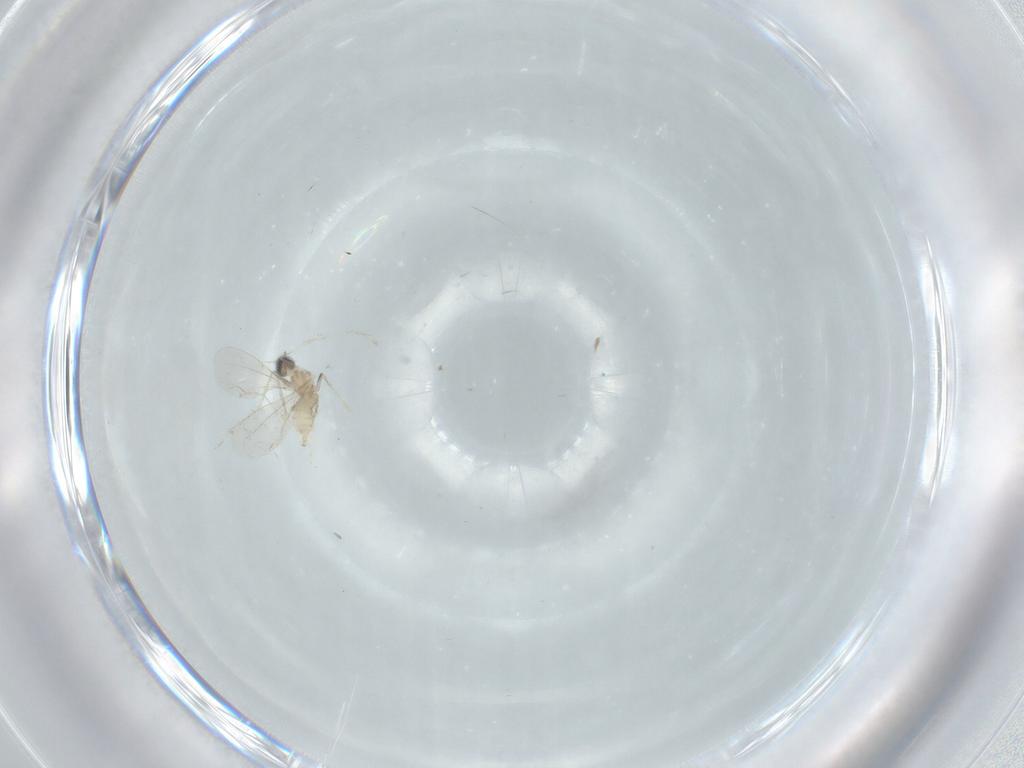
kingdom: Animalia
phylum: Arthropoda
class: Insecta
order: Diptera
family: Cecidomyiidae
